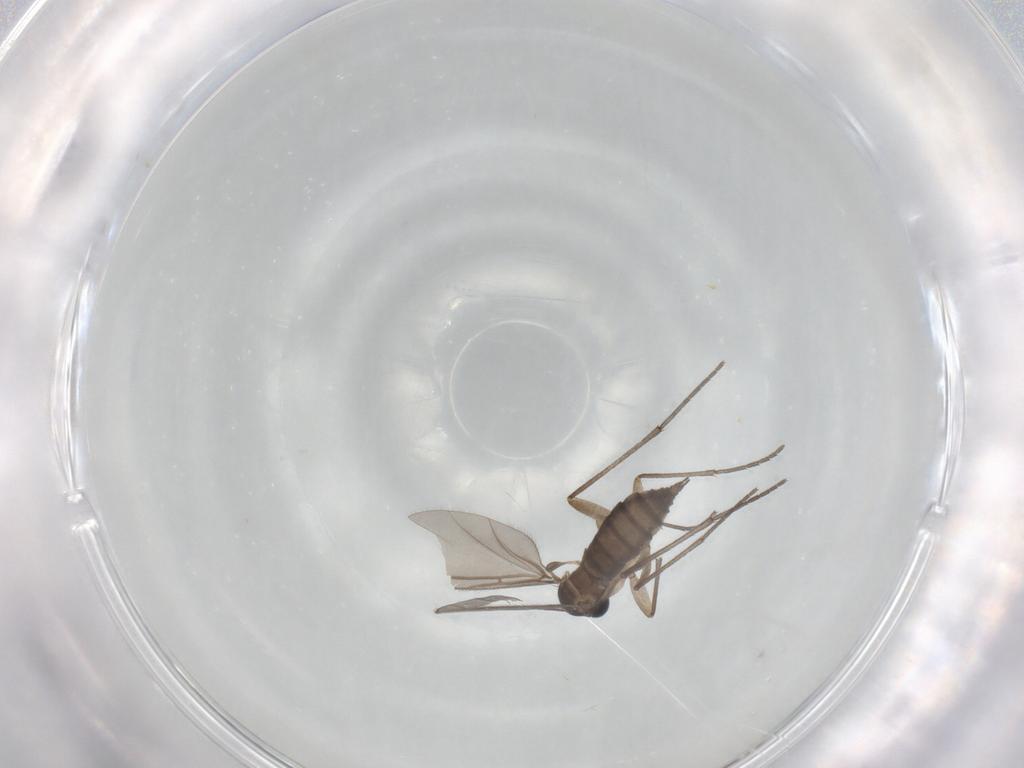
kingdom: Animalia
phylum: Arthropoda
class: Insecta
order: Diptera
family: Sciaridae
